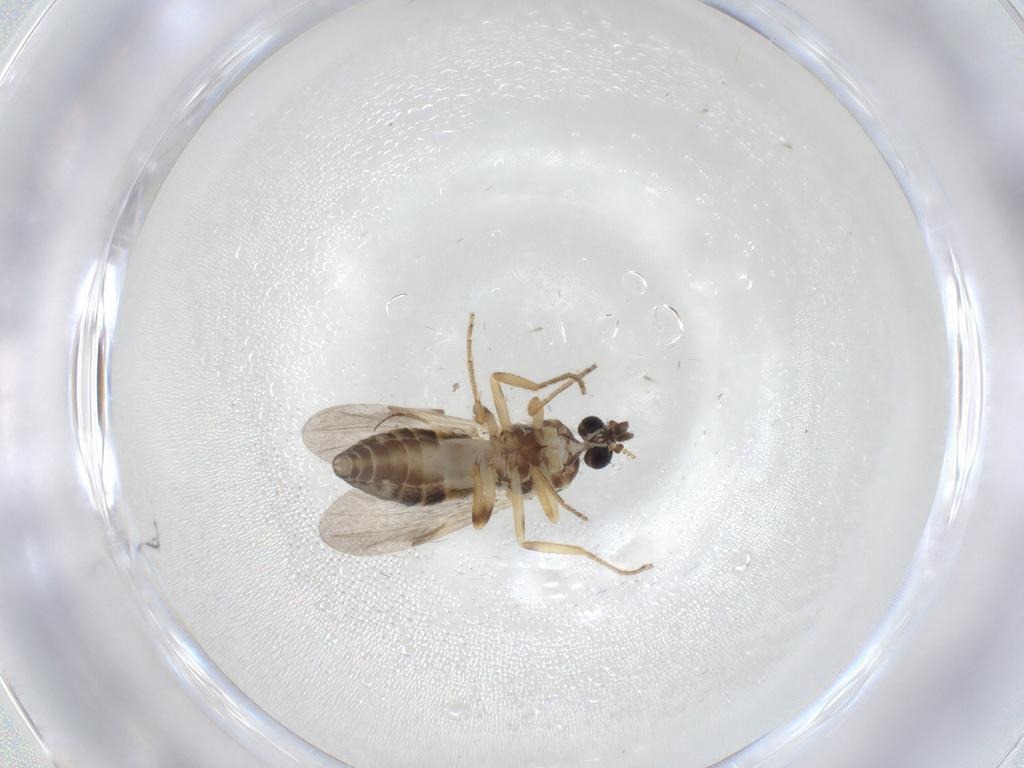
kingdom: Animalia
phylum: Arthropoda
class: Insecta
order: Diptera
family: Ceratopogonidae
